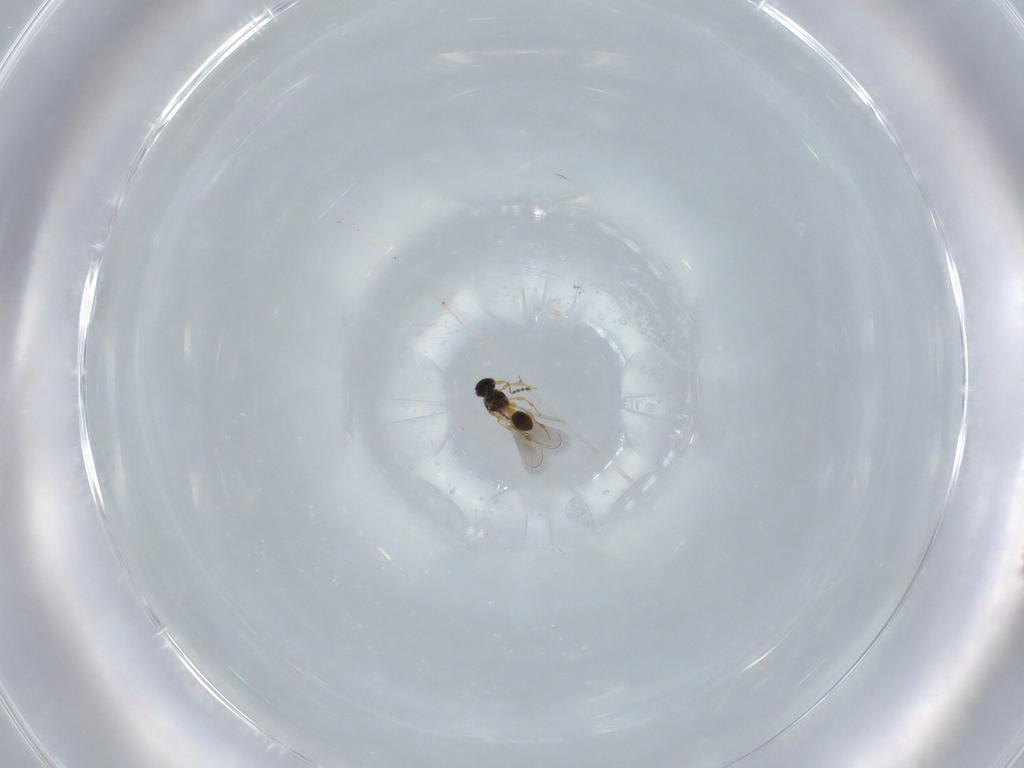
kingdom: Animalia
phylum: Arthropoda
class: Insecta
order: Hymenoptera
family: Platygastridae
